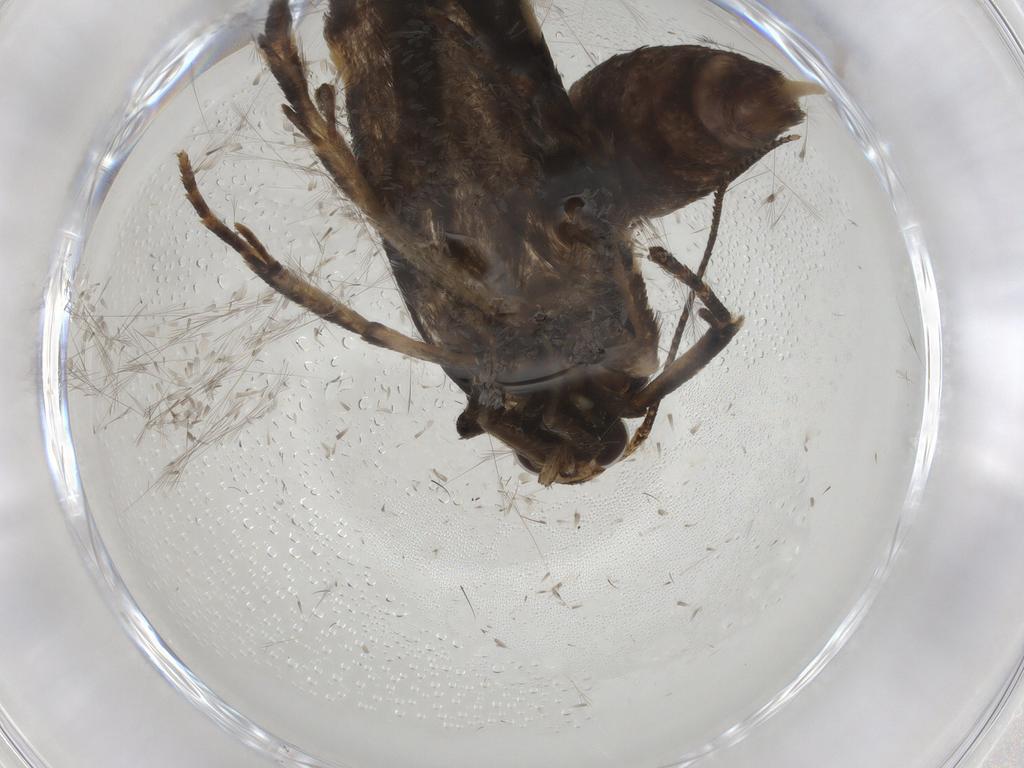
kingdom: Animalia
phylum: Arthropoda
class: Insecta
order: Lepidoptera
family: Gelechiidae
